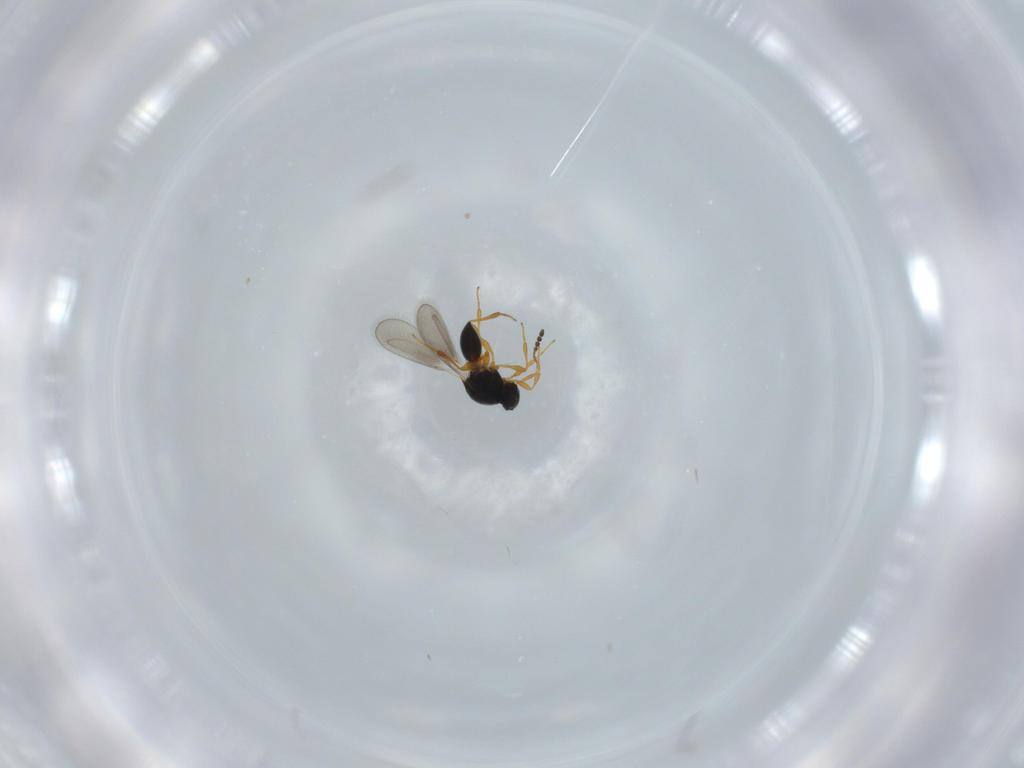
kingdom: Animalia
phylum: Arthropoda
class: Insecta
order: Hymenoptera
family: Platygastridae
